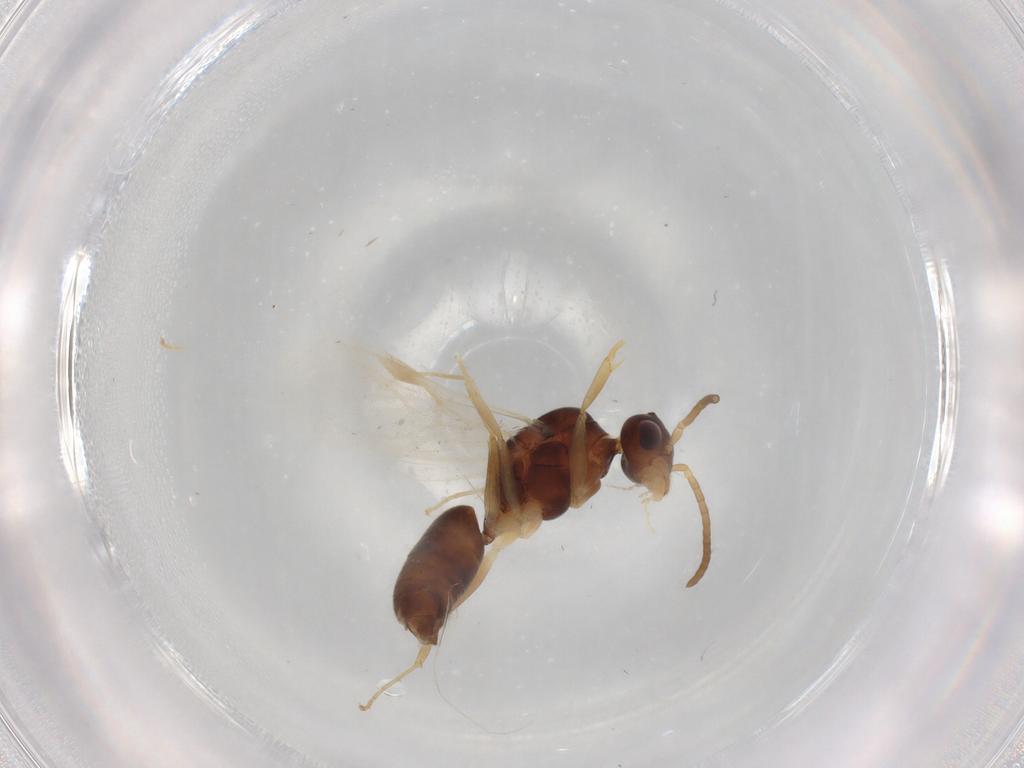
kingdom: Animalia
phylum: Arthropoda
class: Insecta
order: Hymenoptera
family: Formicidae
